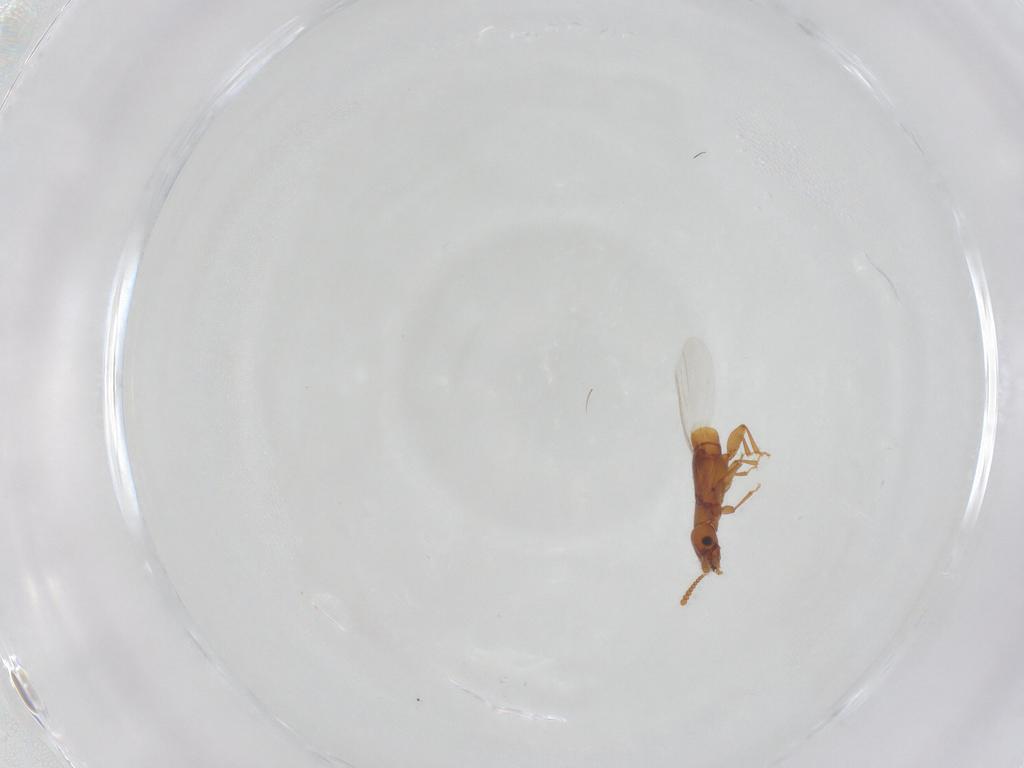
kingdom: Animalia
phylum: Arthropoda
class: Insecta
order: Coleoptera
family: Staphylinidae
